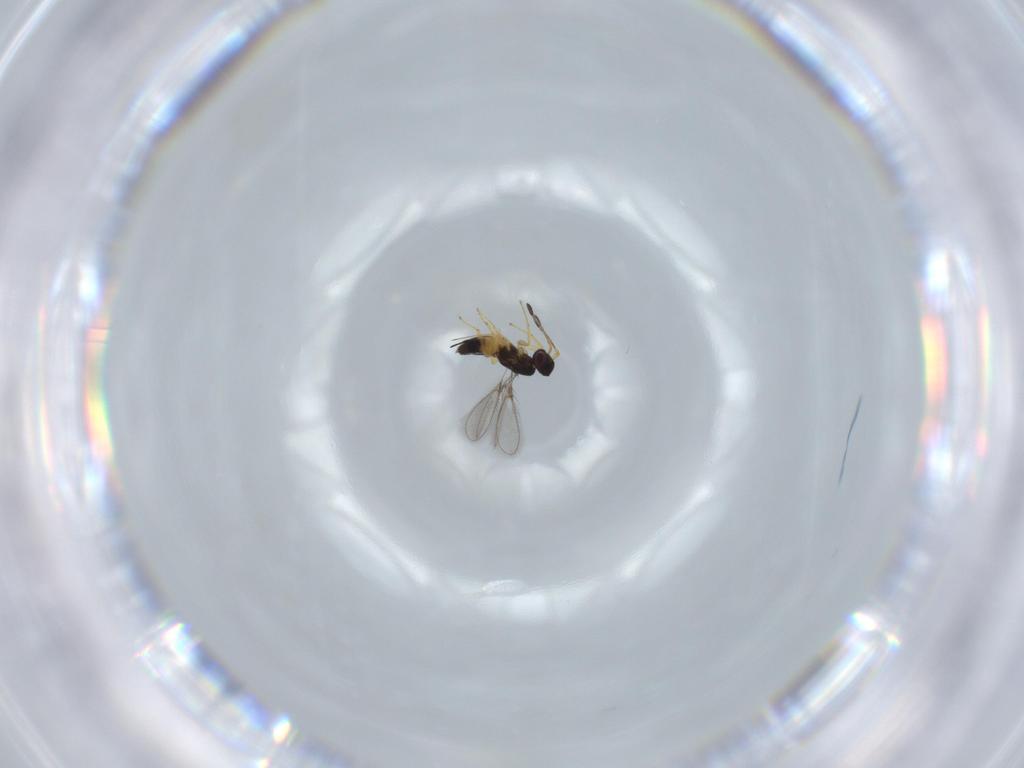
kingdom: Animalia
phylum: Arthropoda
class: Insecta
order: Hymenoptera
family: Mymaridae
